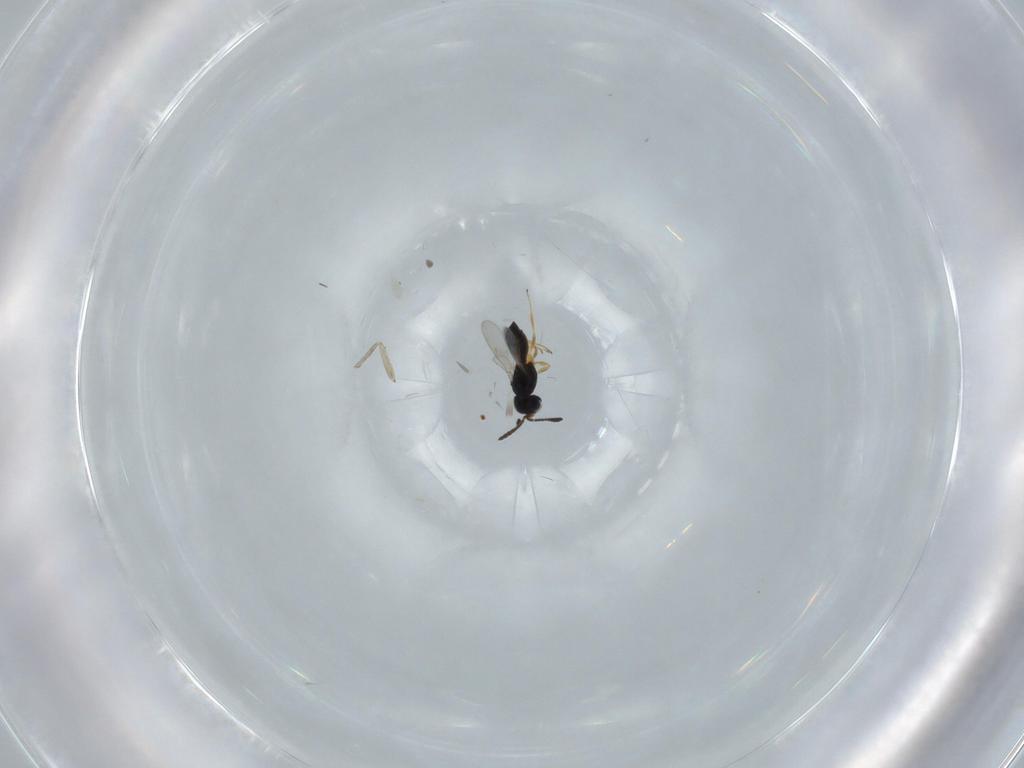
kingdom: Animalia
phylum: Arthropoda
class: Insecta
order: Hymenoptera
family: Scelionidae
